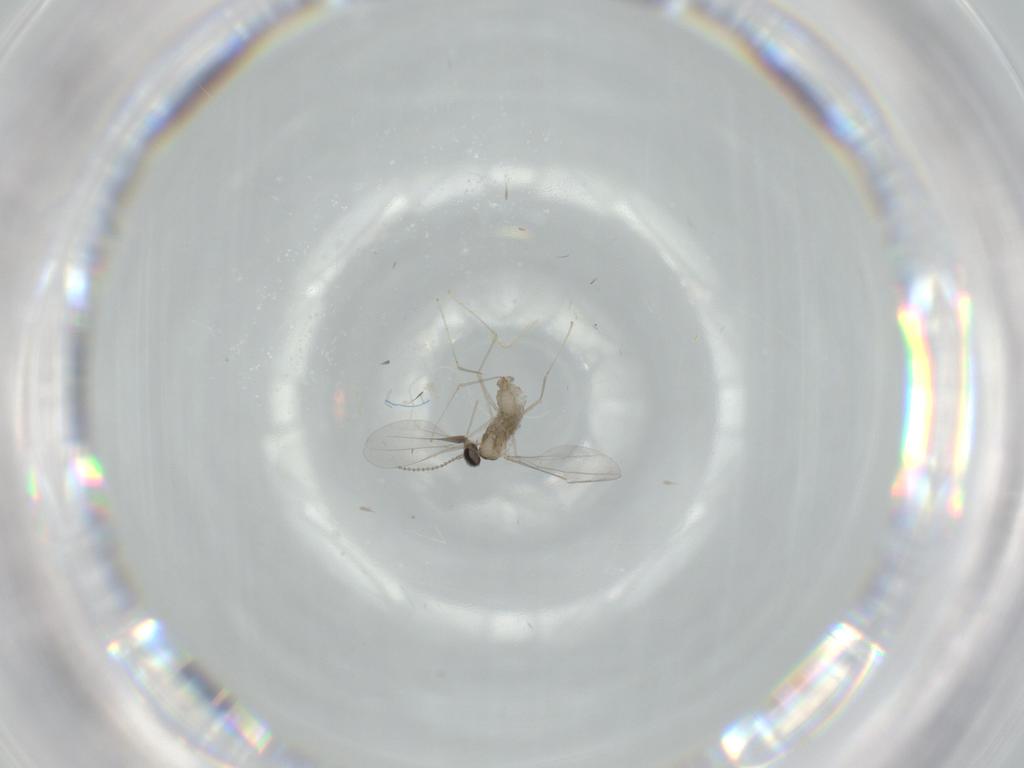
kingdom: Animalia
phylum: Arthropoda
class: Insecta
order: Diptera
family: Cecidomyiidae
